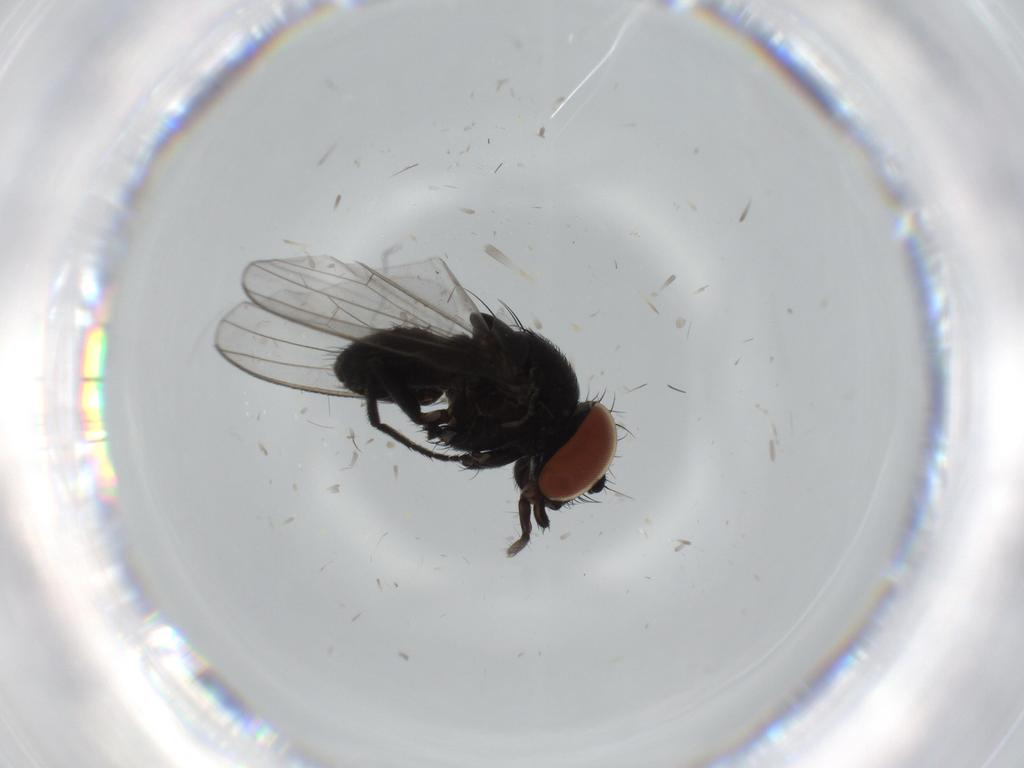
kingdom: Animalia
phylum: Arthropoda
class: Insecta
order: Diptera
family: Milichiidae
